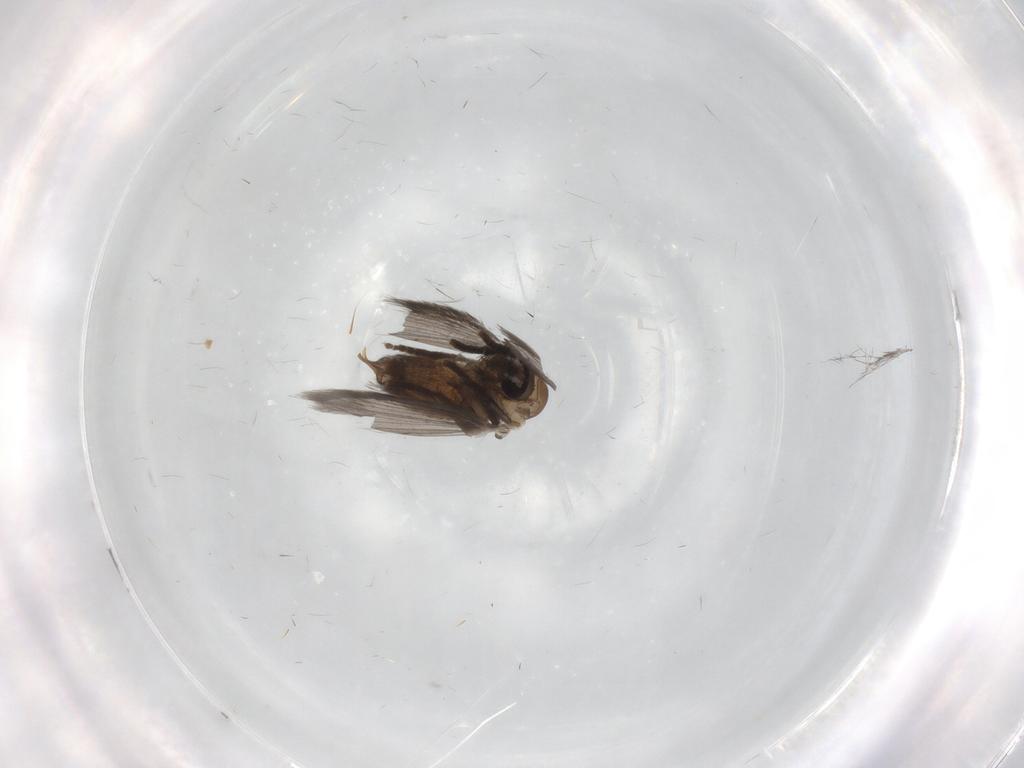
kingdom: Animalia
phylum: Arthropoda
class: Insecta
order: Diptera
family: Psychodidae
